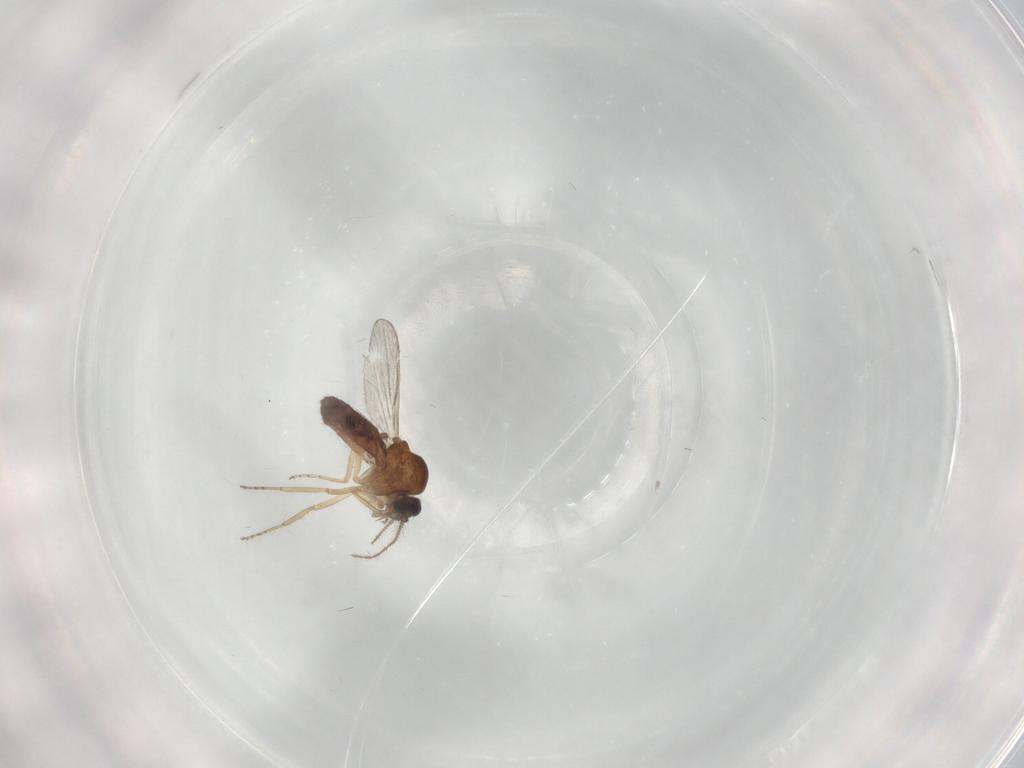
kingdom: Animalia
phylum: Arthropoda
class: Insecta
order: Diptera
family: Ceratopogonidae
